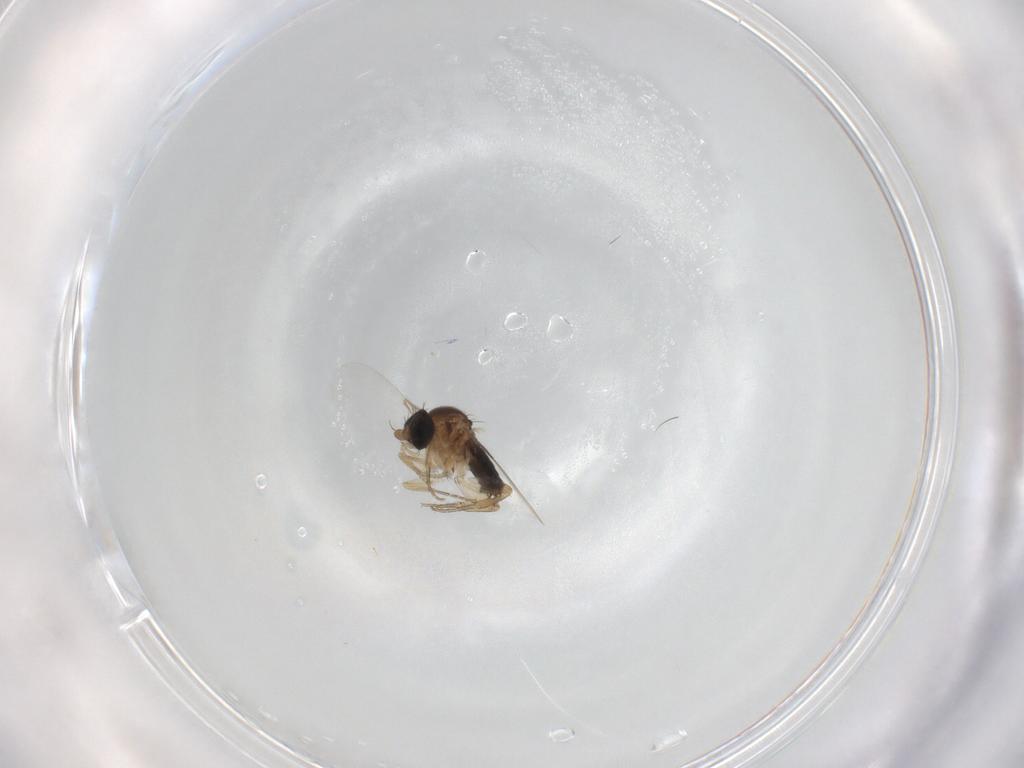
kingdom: Animalia
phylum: Arthropoda
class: Insecta
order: Diptera
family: Phoridae
